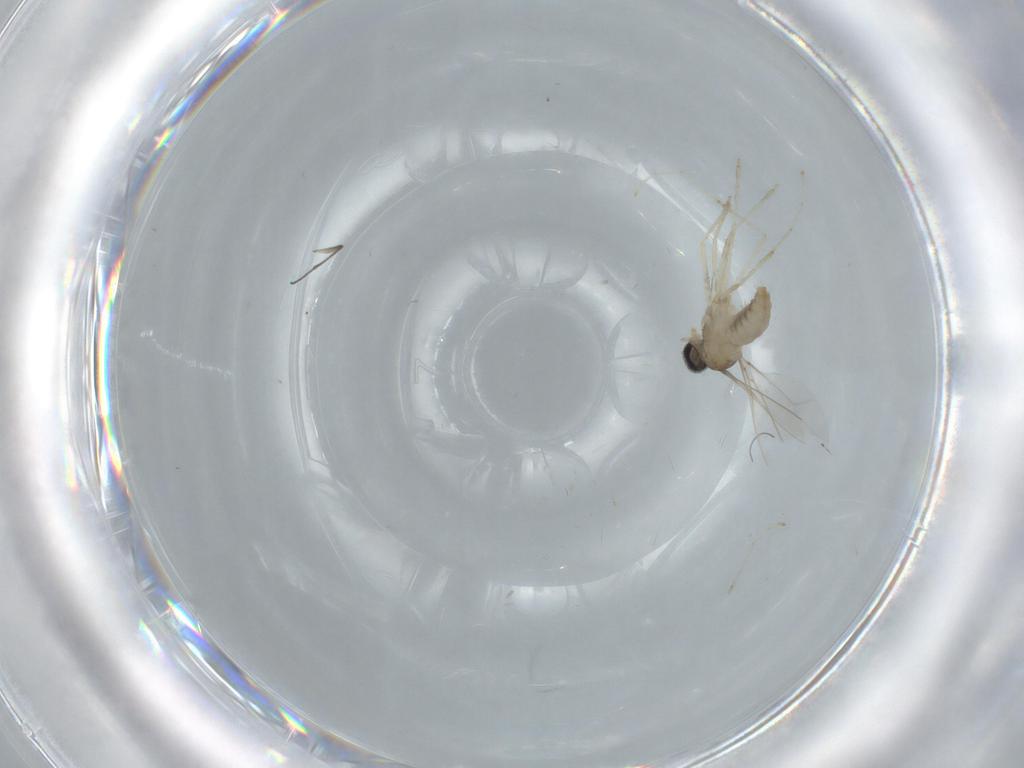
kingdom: Animalia
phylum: Arthropoda
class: Insecta
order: Diptera
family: Cecidomyiidae
